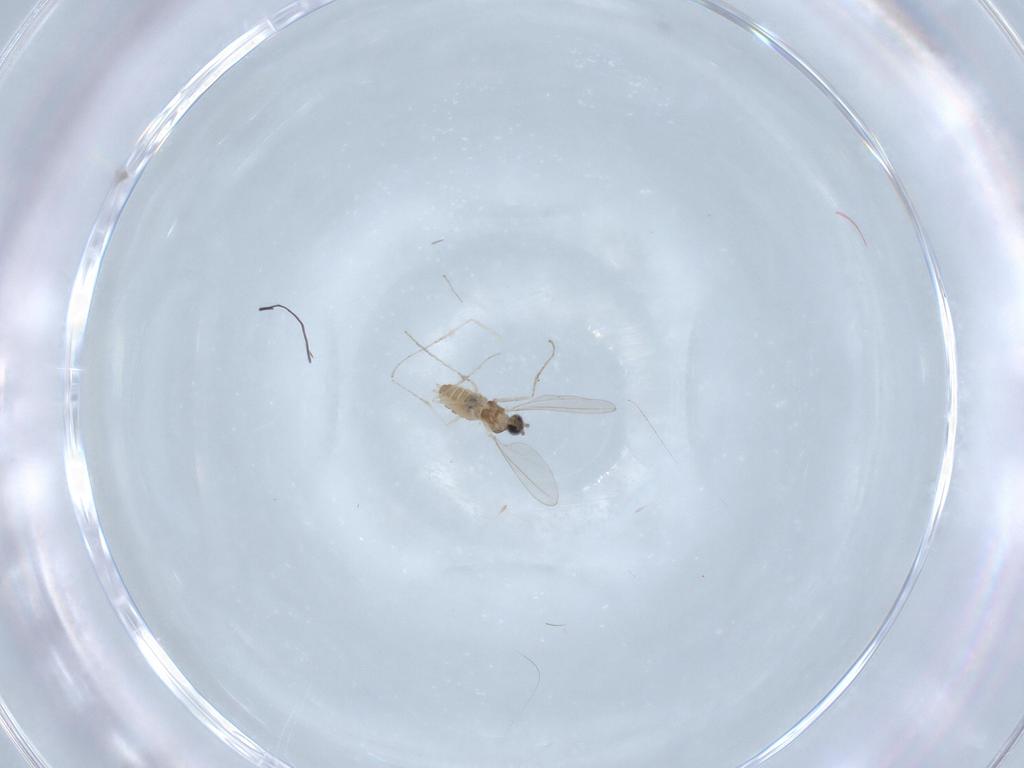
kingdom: Animalia
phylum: Arthropoda
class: Insecta
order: Diptera
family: Cecidomyiidae
